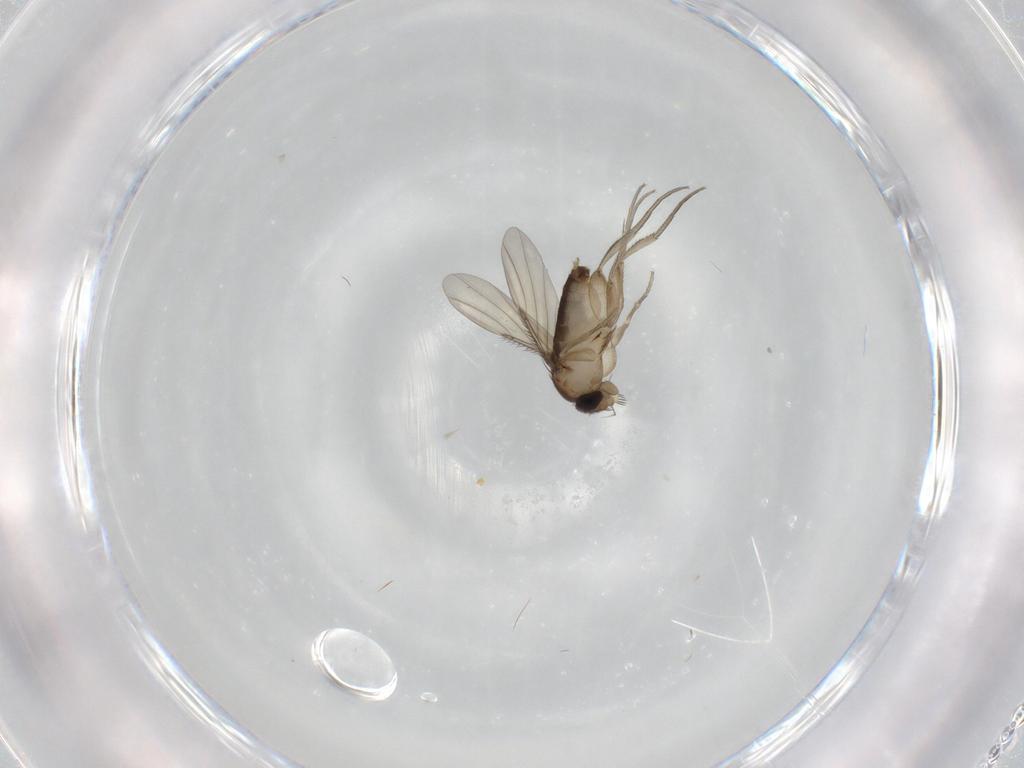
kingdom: Animalia
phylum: Arthropoda
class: Insecta
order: Diptera
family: Phoridae
